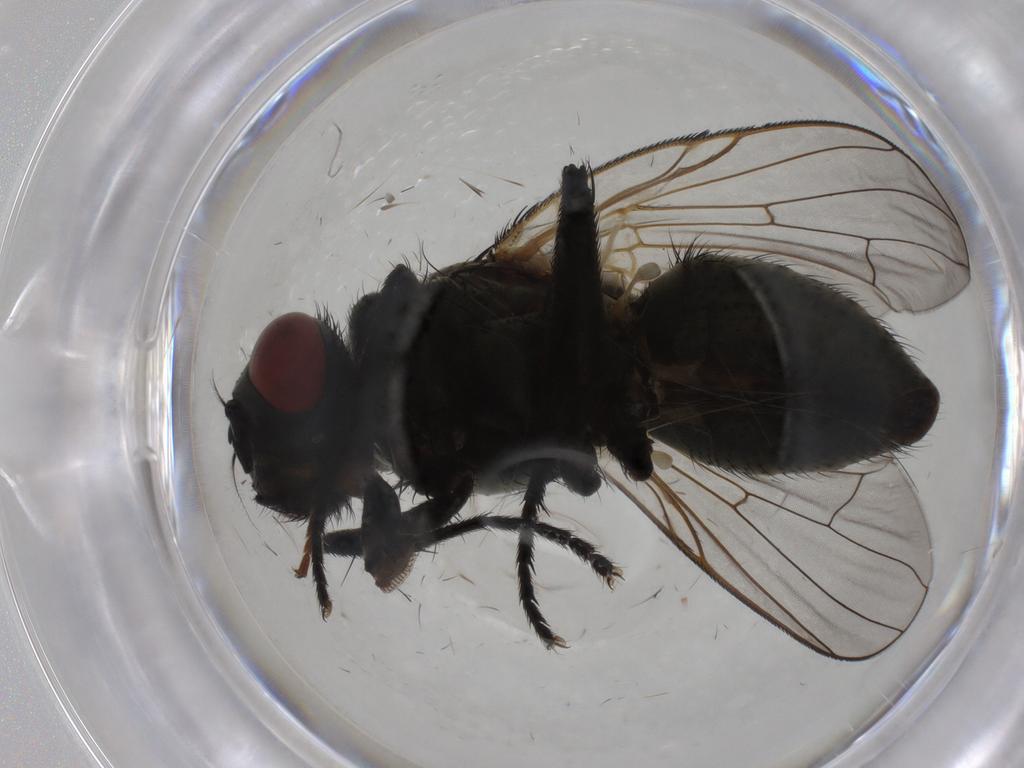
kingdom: Animalia
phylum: Arthropoda
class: Insecta
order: Diptera
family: Muscidae
